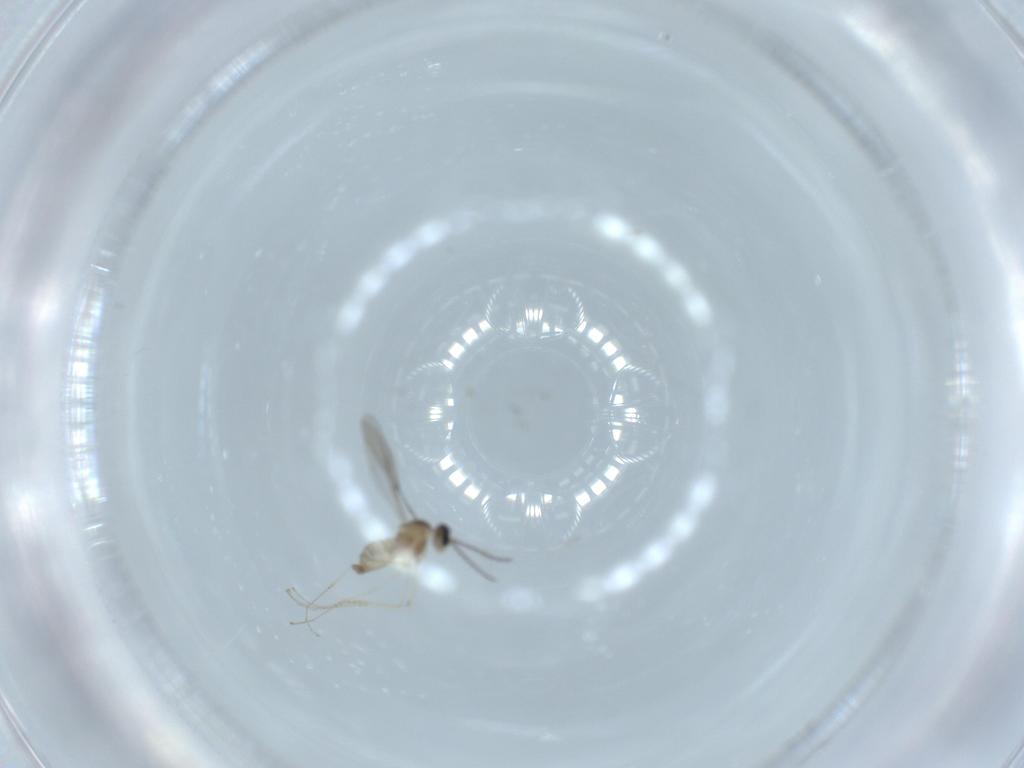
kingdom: Animalia
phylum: Arthropoda
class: Insecta
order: Diptera
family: Cecidomyiidae
